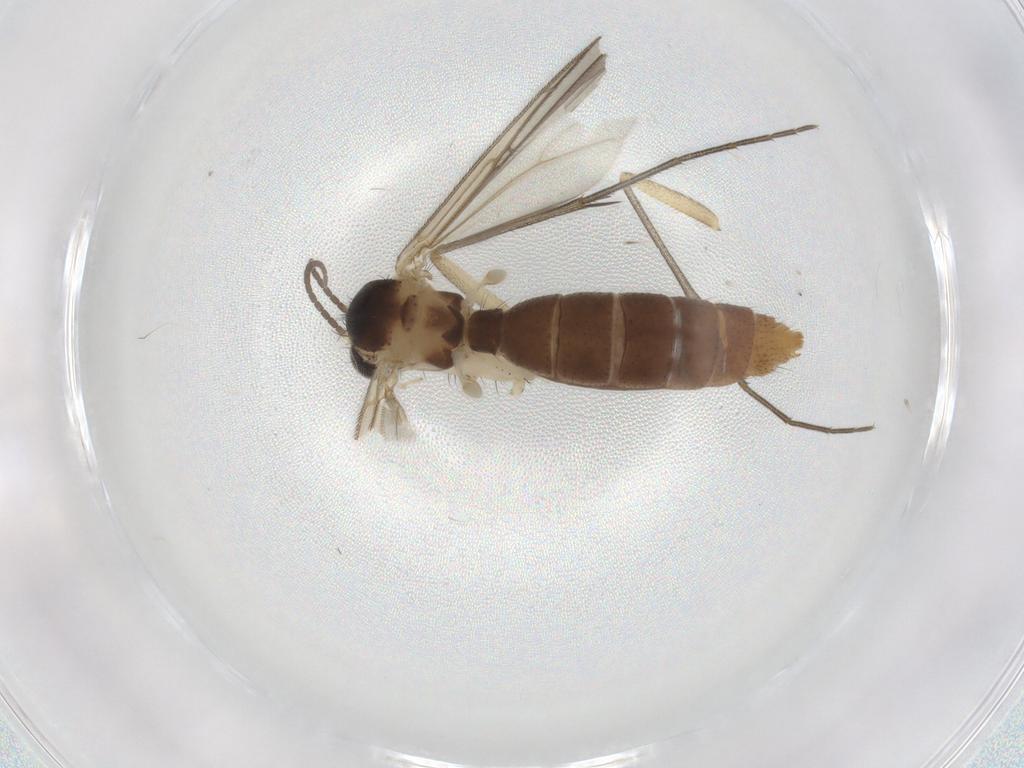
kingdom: Animalia
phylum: Arthropoda
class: Insecta
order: Diptera
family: Mycetophilidae
